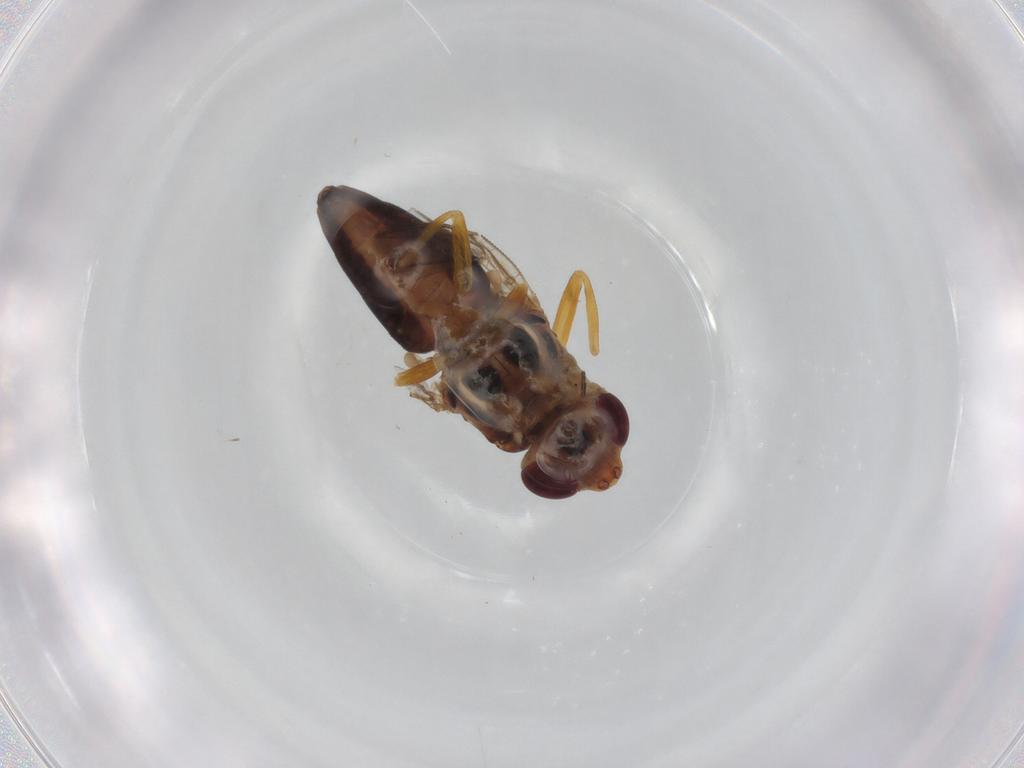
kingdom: Animalia
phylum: Arthropoda
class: Insecta
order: Diptera
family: Chloropidae
